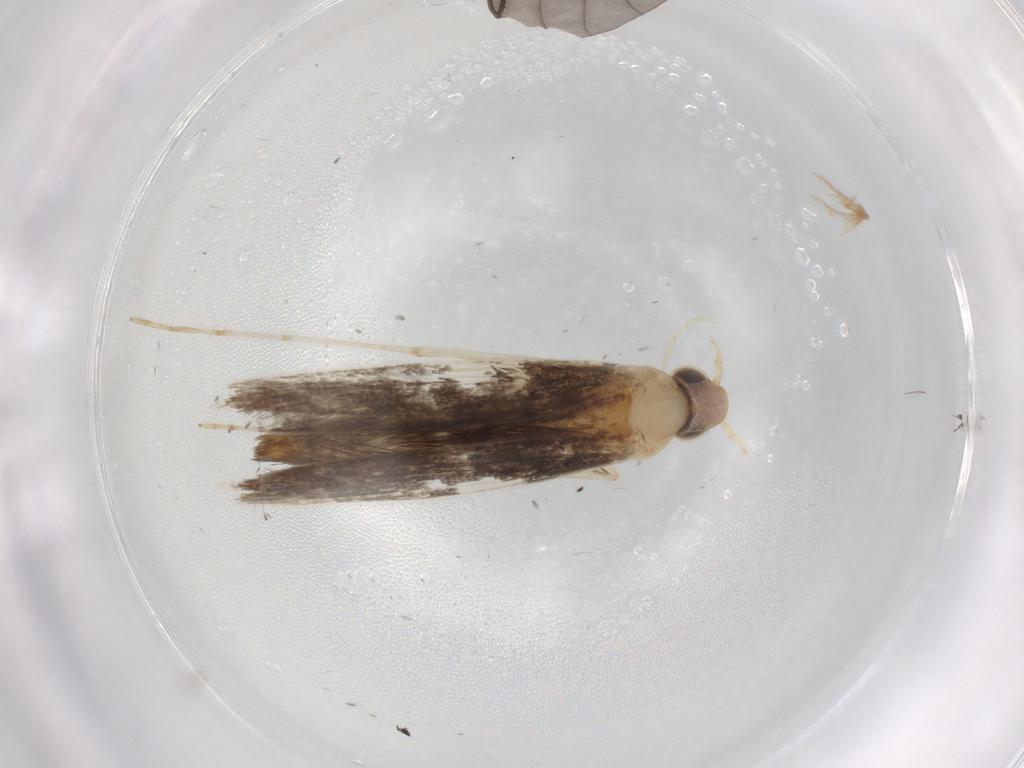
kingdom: Animalia
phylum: Arthropoda
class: Insecta
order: Lepidoptera
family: Gracillariidae
